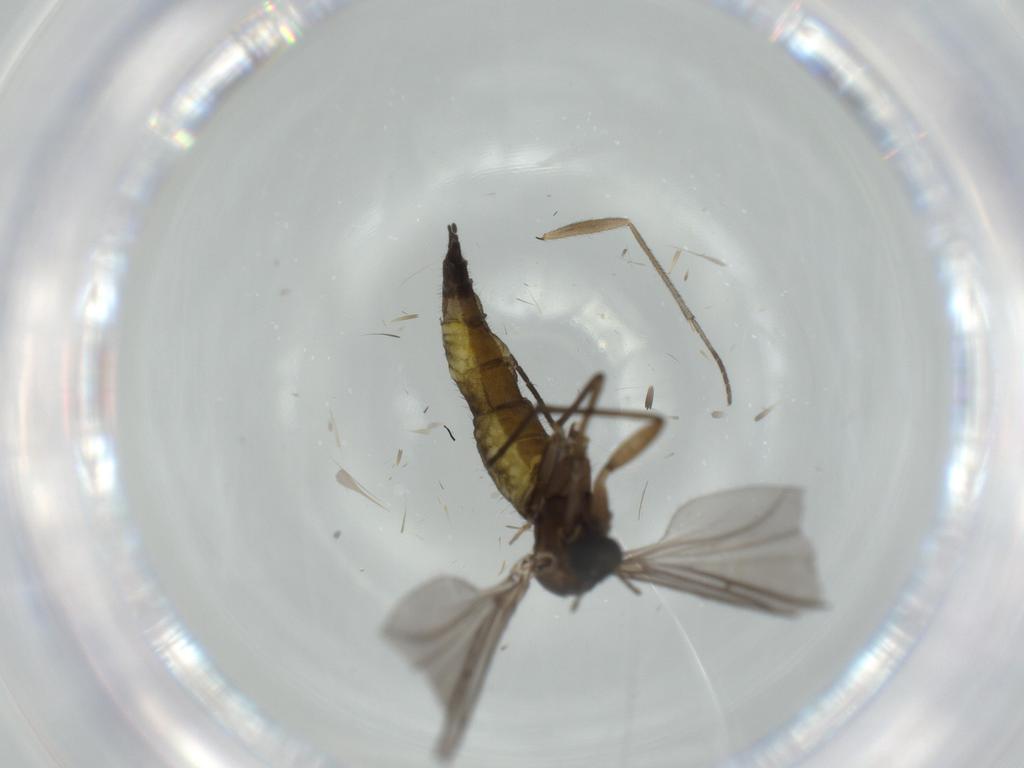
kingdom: Animalia
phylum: Arthropoda
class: Insecta
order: Diptera
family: Sciaridae
